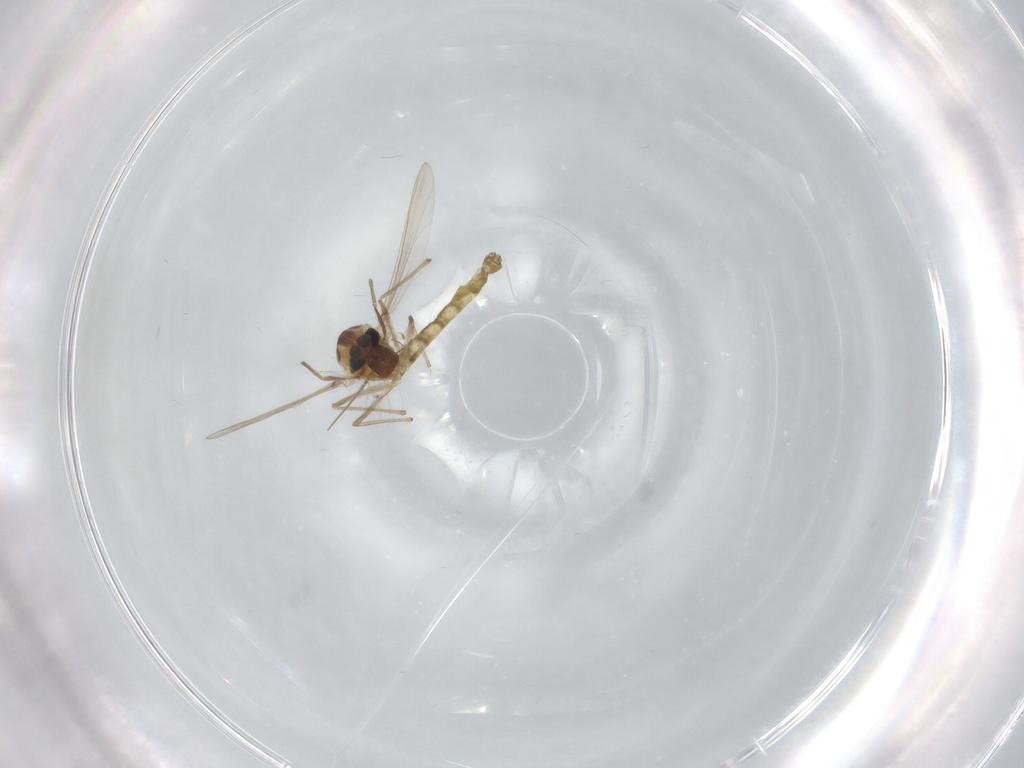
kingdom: Animalia
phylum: Arthropoda
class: Insecta
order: Diptera
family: Chironomidae
